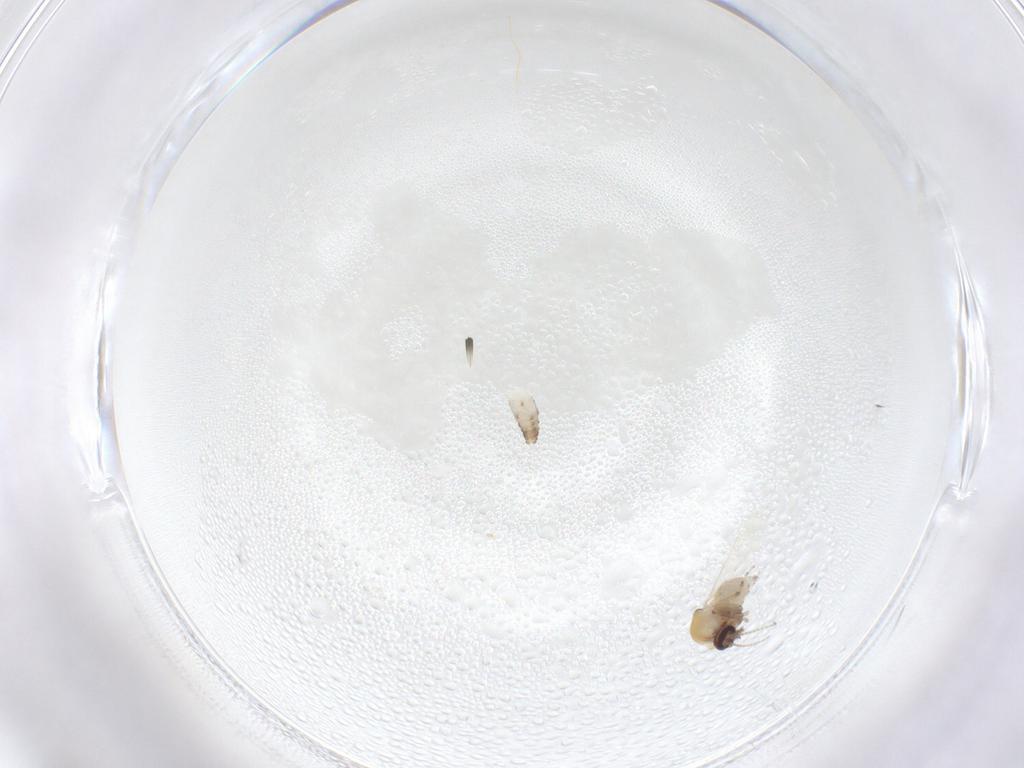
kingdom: Animalia
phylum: Arthropoda
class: Insecta
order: Diptera
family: Ceratopogonidae
